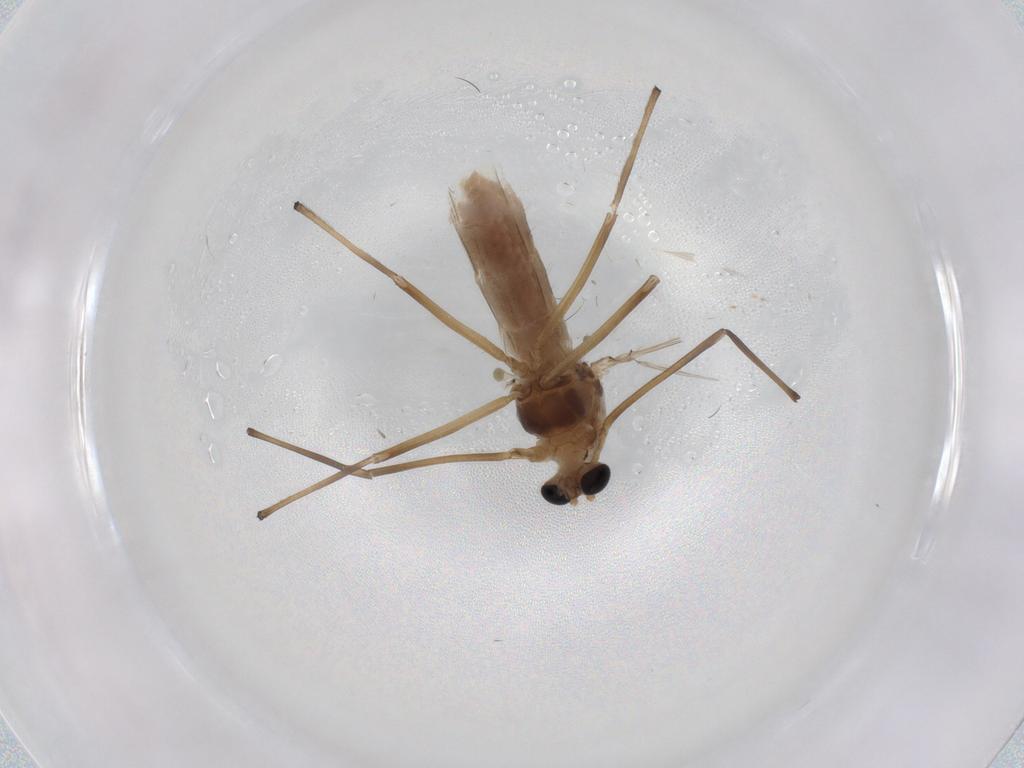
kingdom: Animalia
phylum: Arthropoda
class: Insecta
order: Diptera
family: Chironomidae
